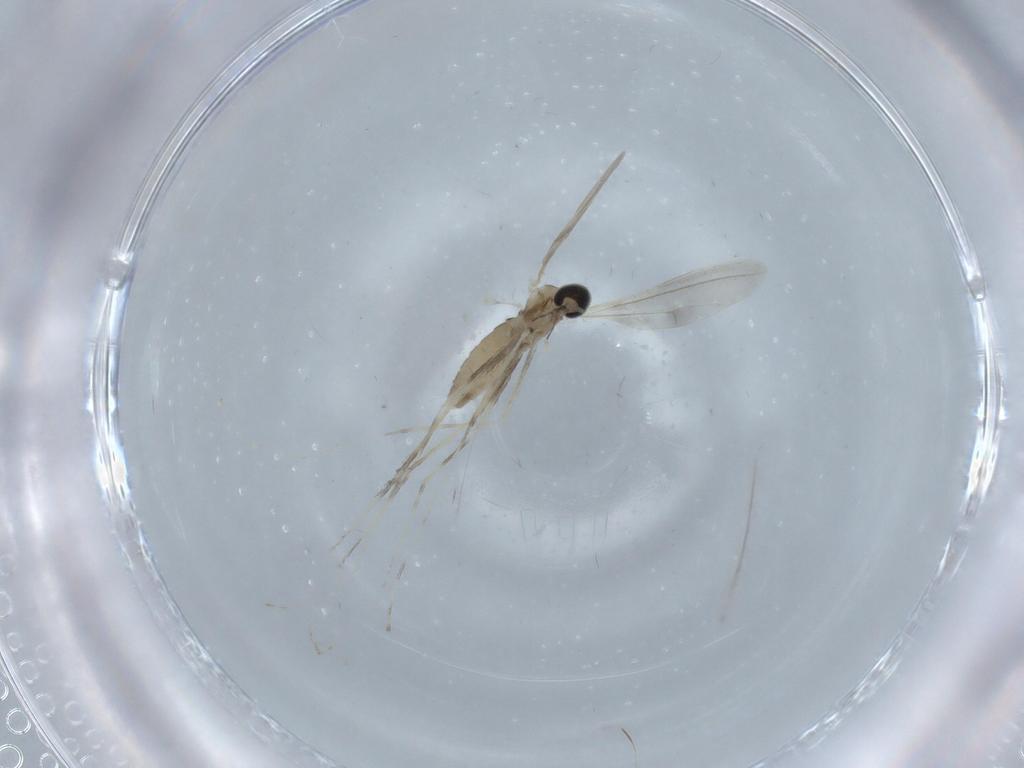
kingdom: Animalia
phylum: Arthropoda
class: Insecta
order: Diptera
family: Cecidomyiidae
